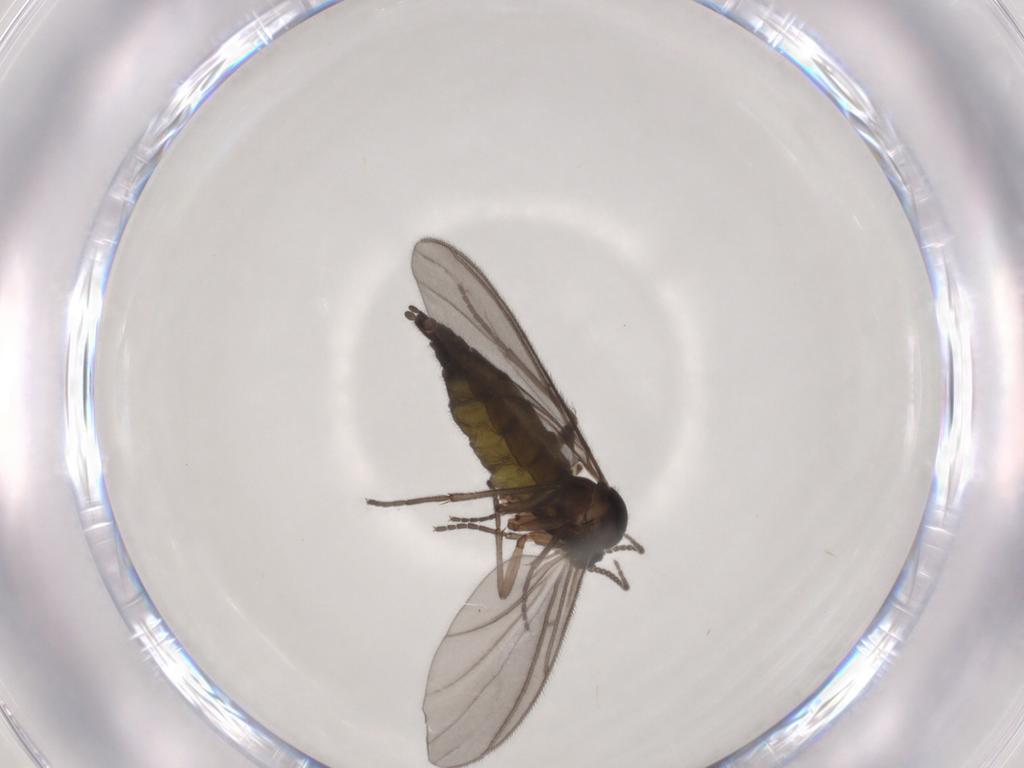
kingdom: Animalia
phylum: Arthropoda
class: Insecta
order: Diptera
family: Sciaridae
